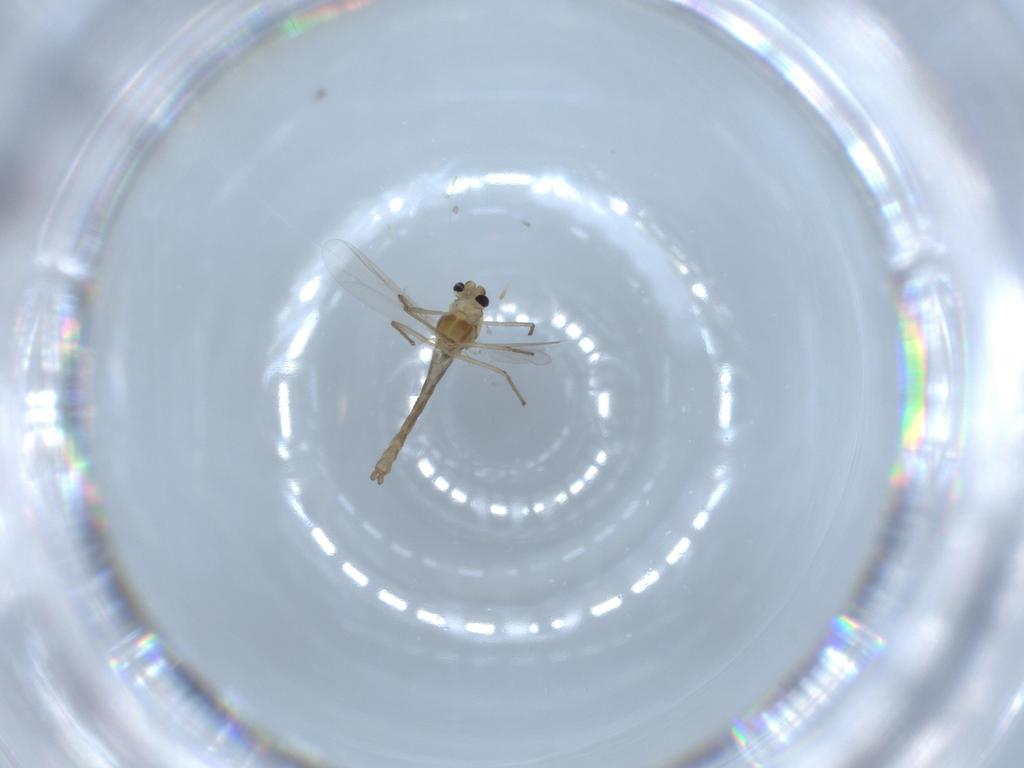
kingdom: Animalia
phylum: Arthropoda
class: Insecta
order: Diptera
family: Chironomidae
